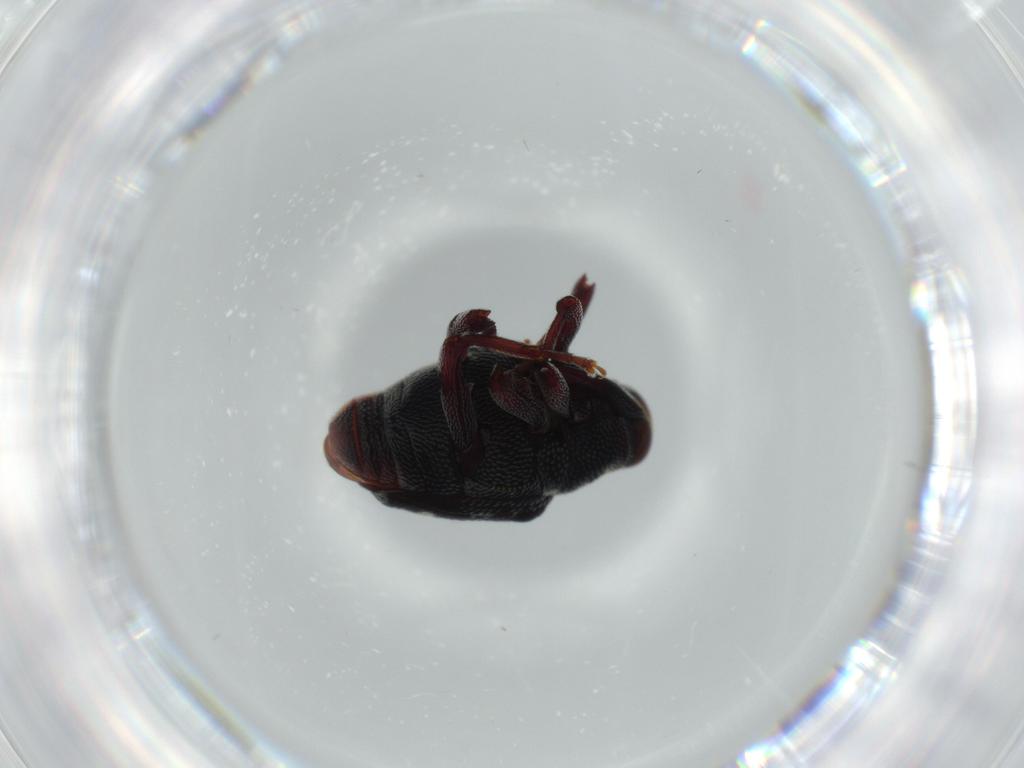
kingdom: Animalia
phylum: Arthropoda
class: Insecta
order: Coleoptera
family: Curculionidae
